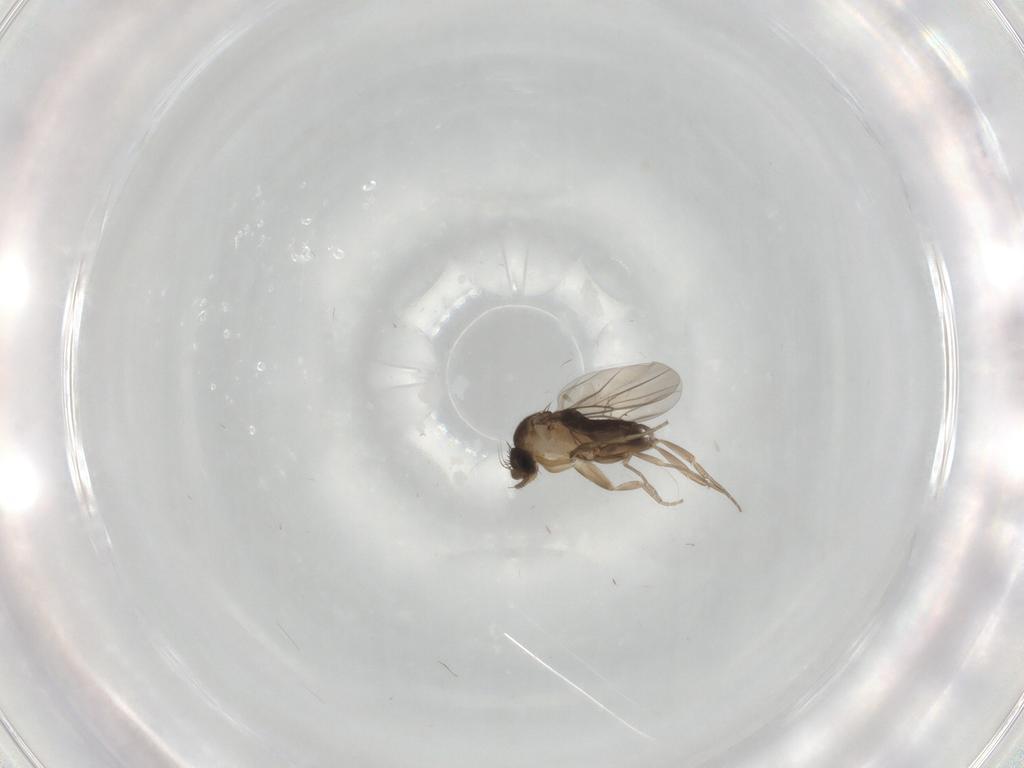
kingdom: Animalia
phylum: Arthropoda
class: Insecta
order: Diptera
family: Phoridae
